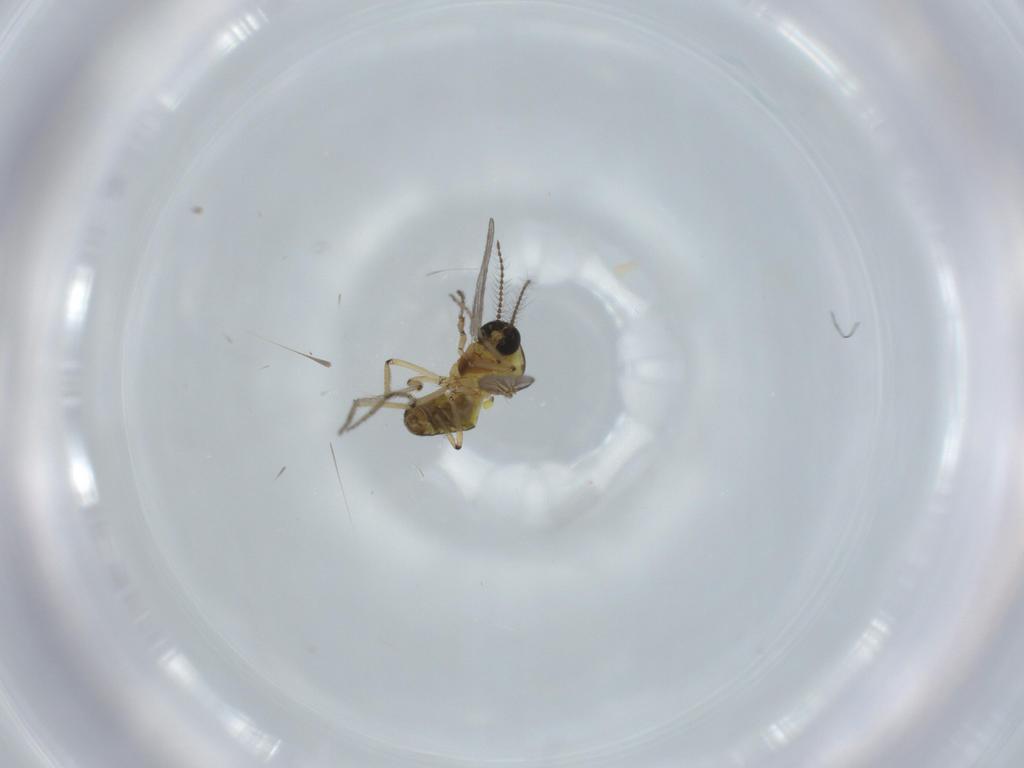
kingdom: Animalia
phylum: Arthropoda
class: Insecta
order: Diptera
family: Ceratopogonidae
